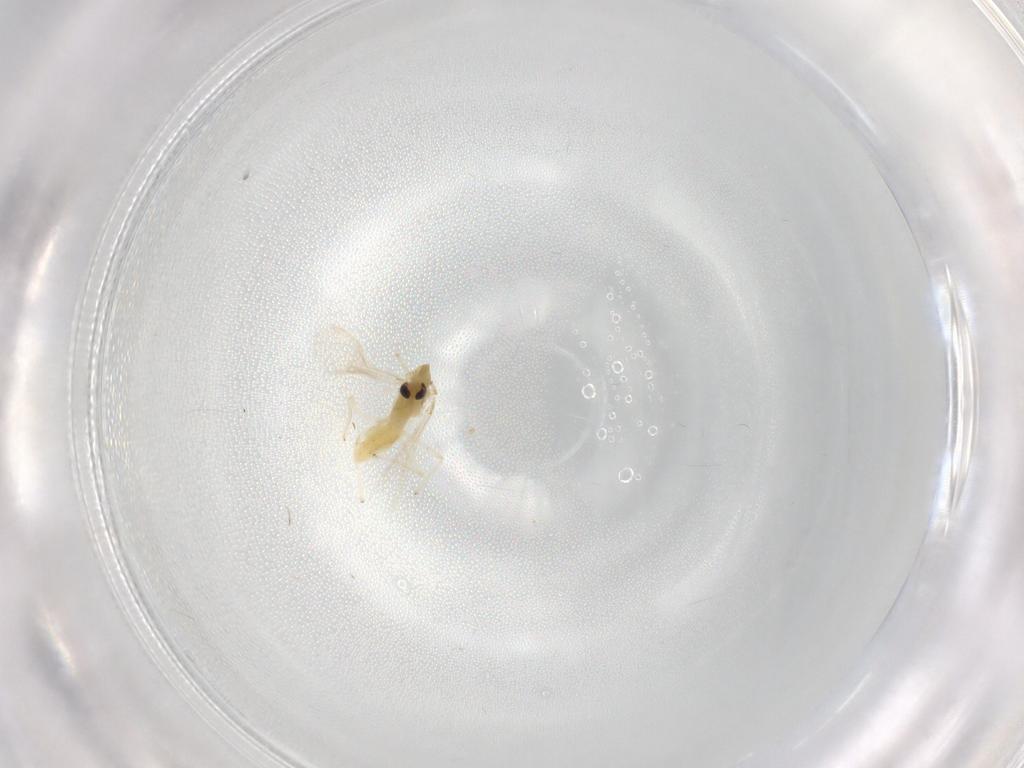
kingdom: Animalia
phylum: Arthropoda
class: Insecta
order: Diptera
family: Chironomidae
